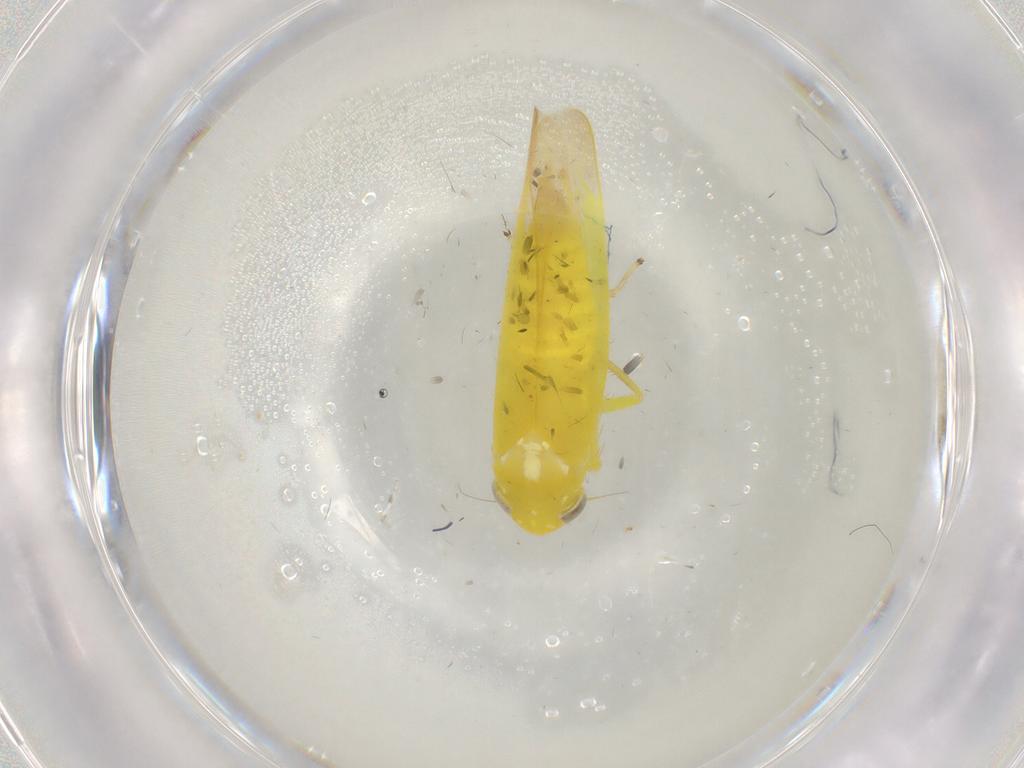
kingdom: Animalia
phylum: Arthropoda
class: Insecta
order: Hemiptera
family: Cicadellidae
